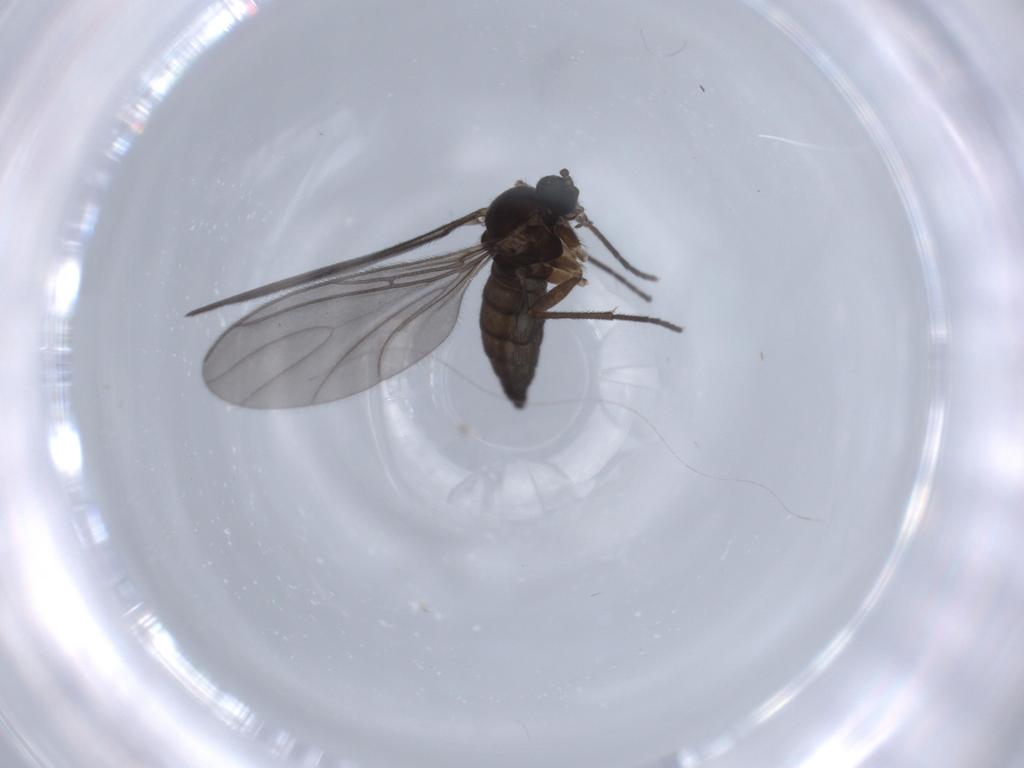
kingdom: Animalia
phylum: Arthropoda
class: Insecta
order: Diptera
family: Sciaridae
